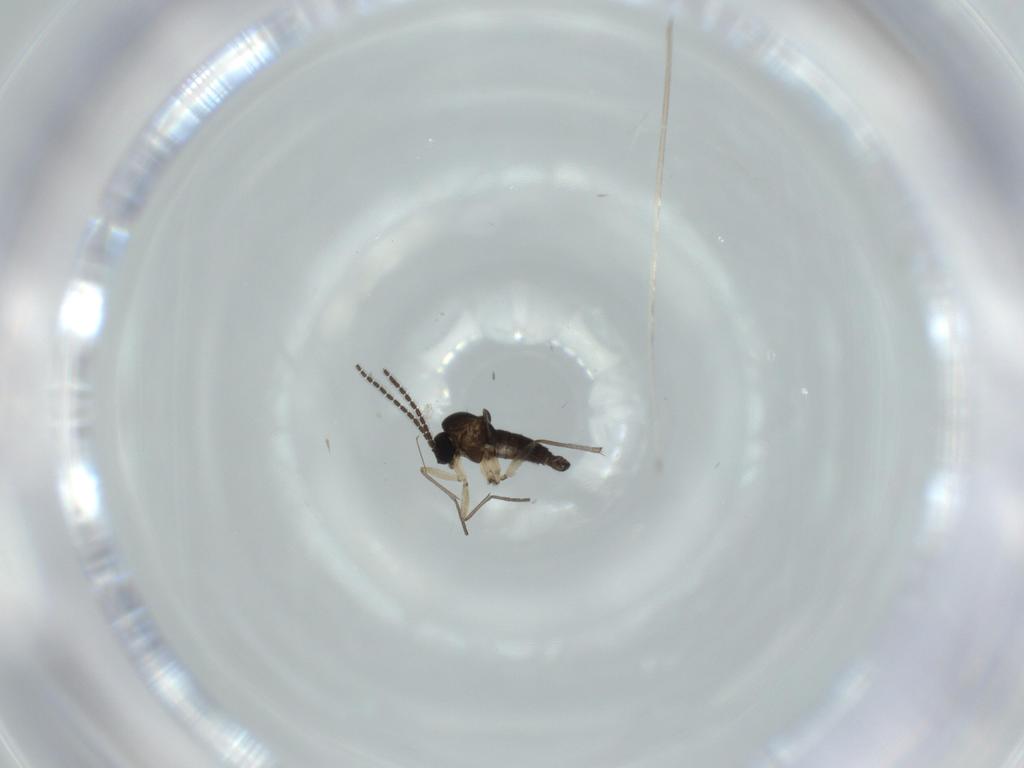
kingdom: Animalia
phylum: Arthropoda
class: Insecta
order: Diptera
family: Sciaridae
